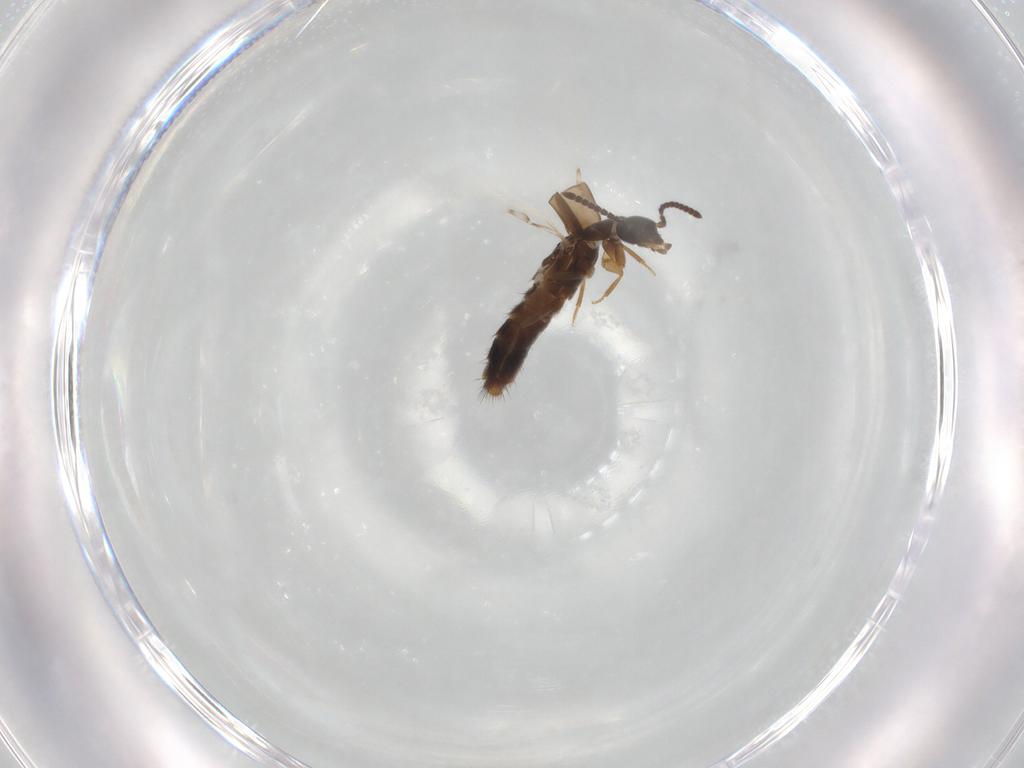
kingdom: Animalia
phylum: Arthropoda
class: Insecta
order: Coleoptera
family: Staphylinidae
